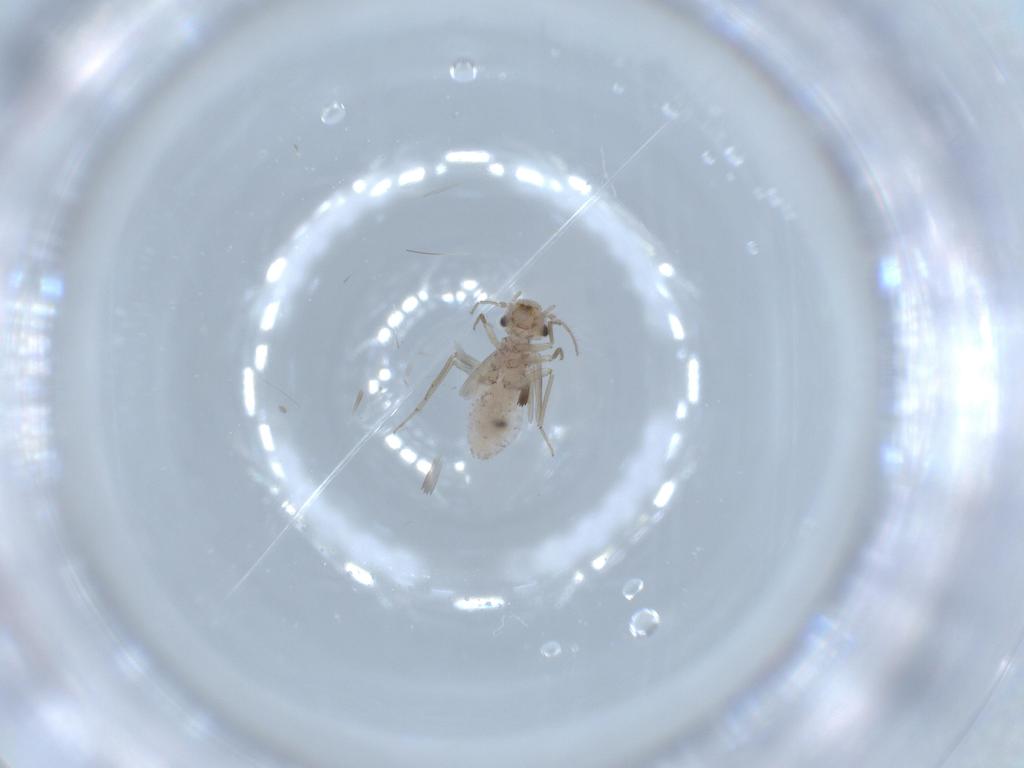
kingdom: Animalia
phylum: Arthropoda
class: Insecta
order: Psocodea
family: Lachesillidae
